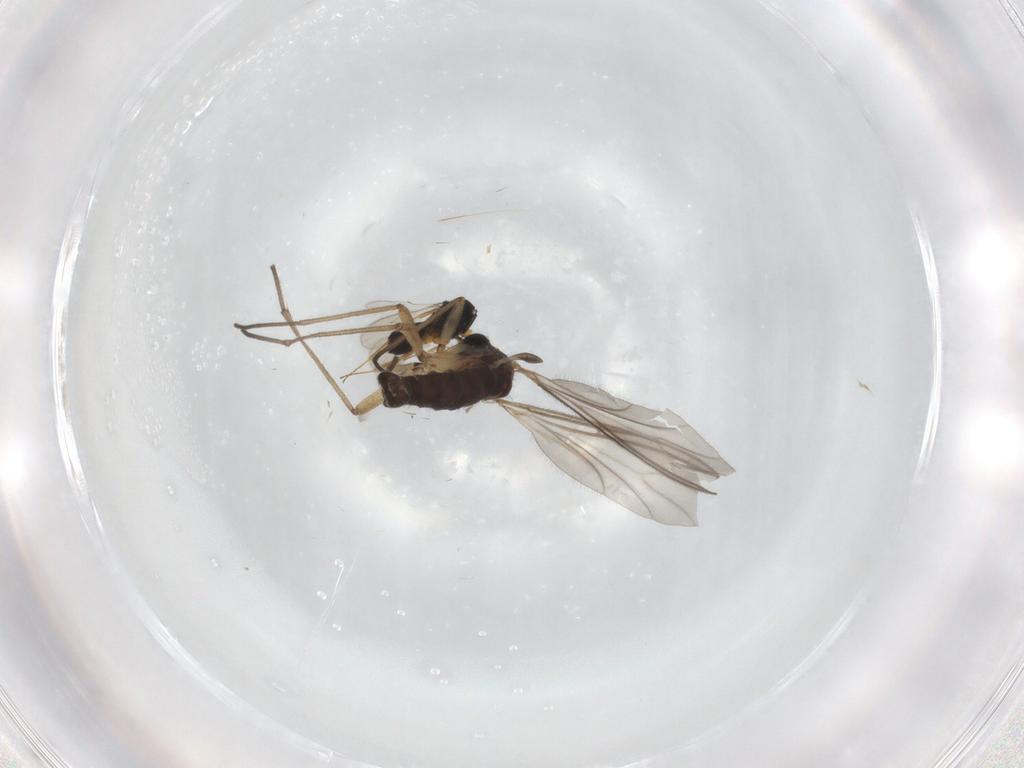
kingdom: Animalia
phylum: Arthropoda
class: Insecta
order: Diptera
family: Sciaridae
